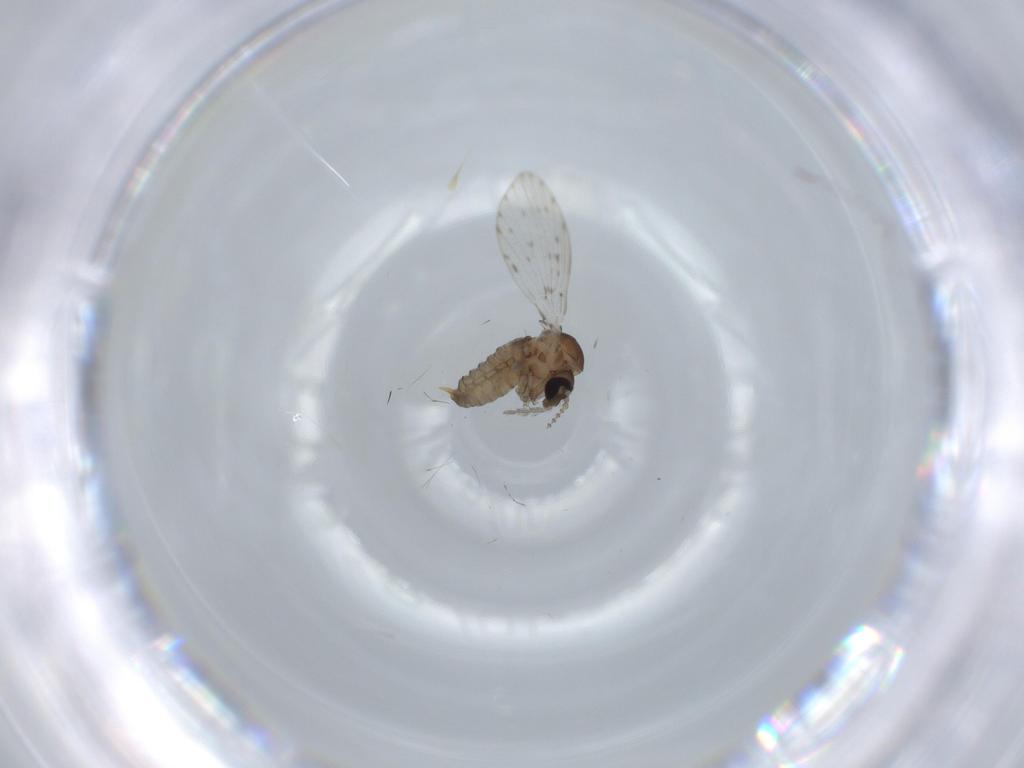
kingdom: Animalia
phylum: Arthropoda
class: Insecta
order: Diptera
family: Psychodidae
